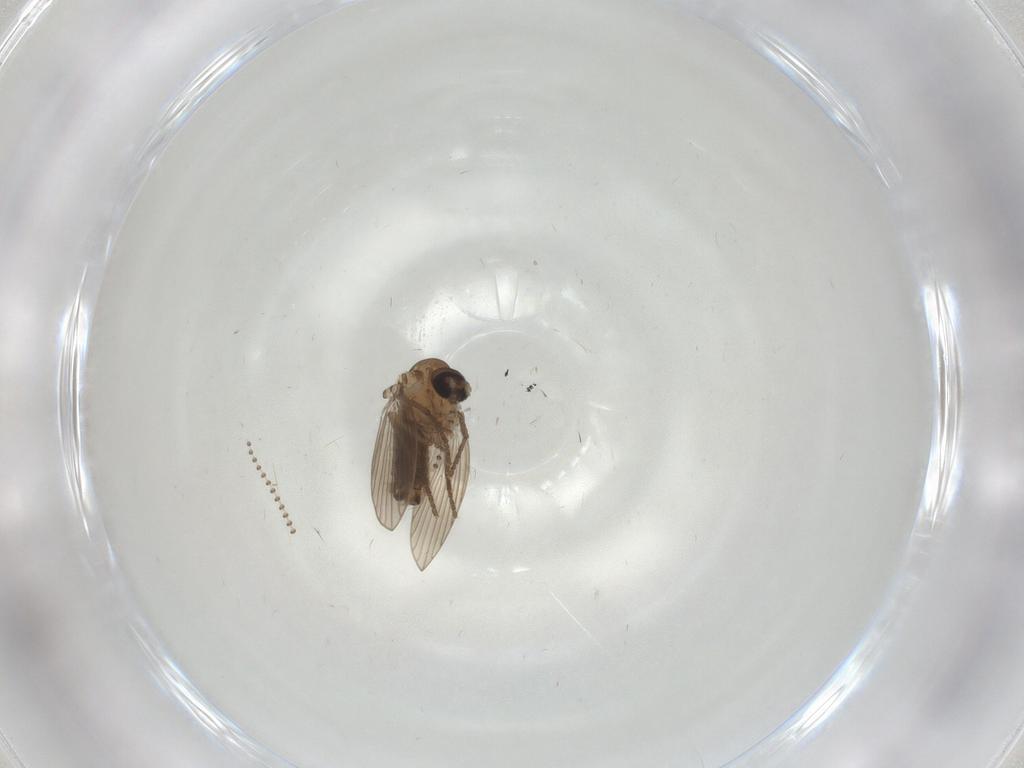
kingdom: Animalia
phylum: Arthropoda
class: Insecta
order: Diptera
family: Psychodidae
